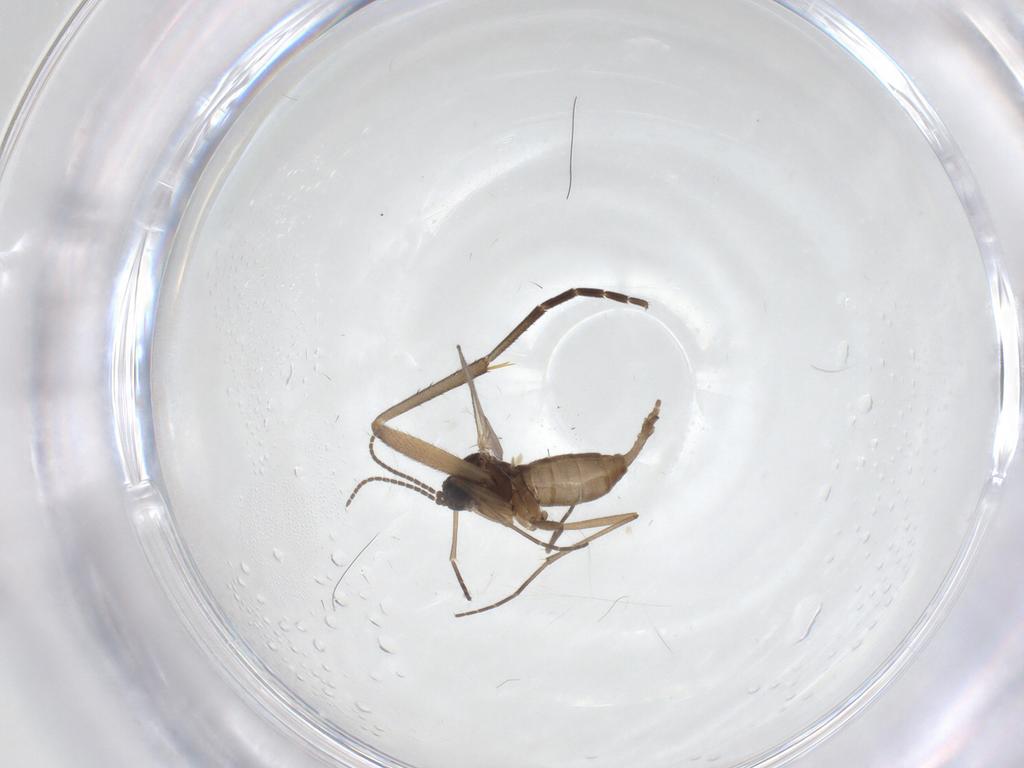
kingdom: Animalia
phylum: Arthropoda
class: Insecta
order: Diptera
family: Sciaridae
